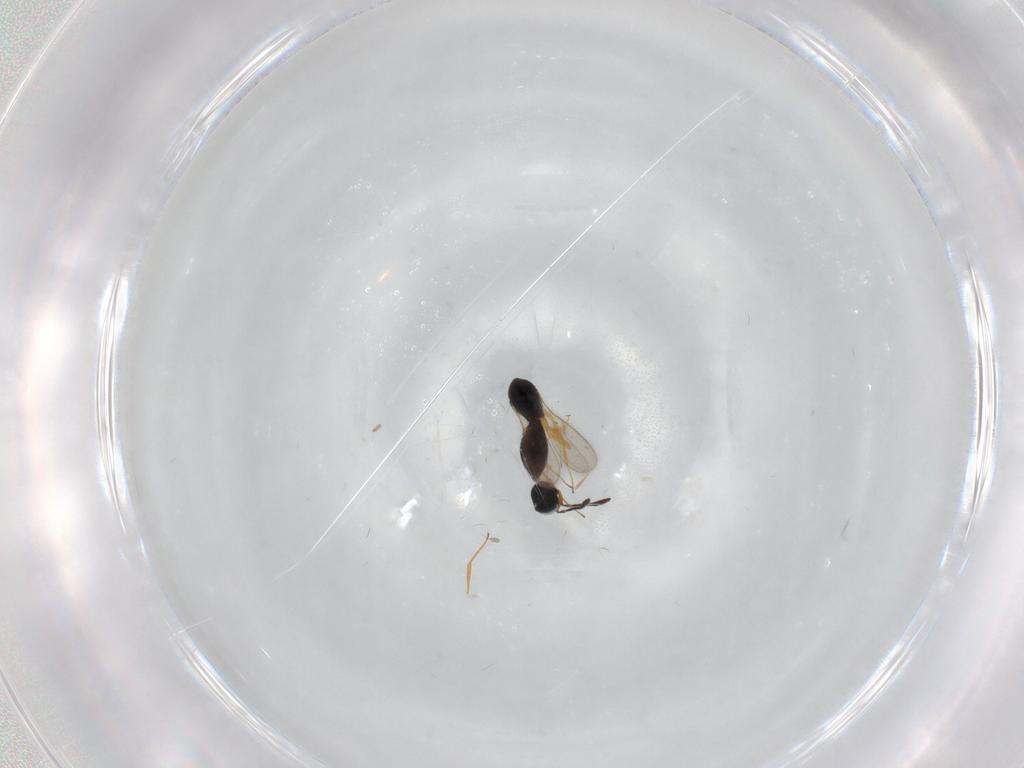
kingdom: Animalia
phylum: Arthropoda
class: Insecta
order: Hymenoptera
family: Scelionidae
